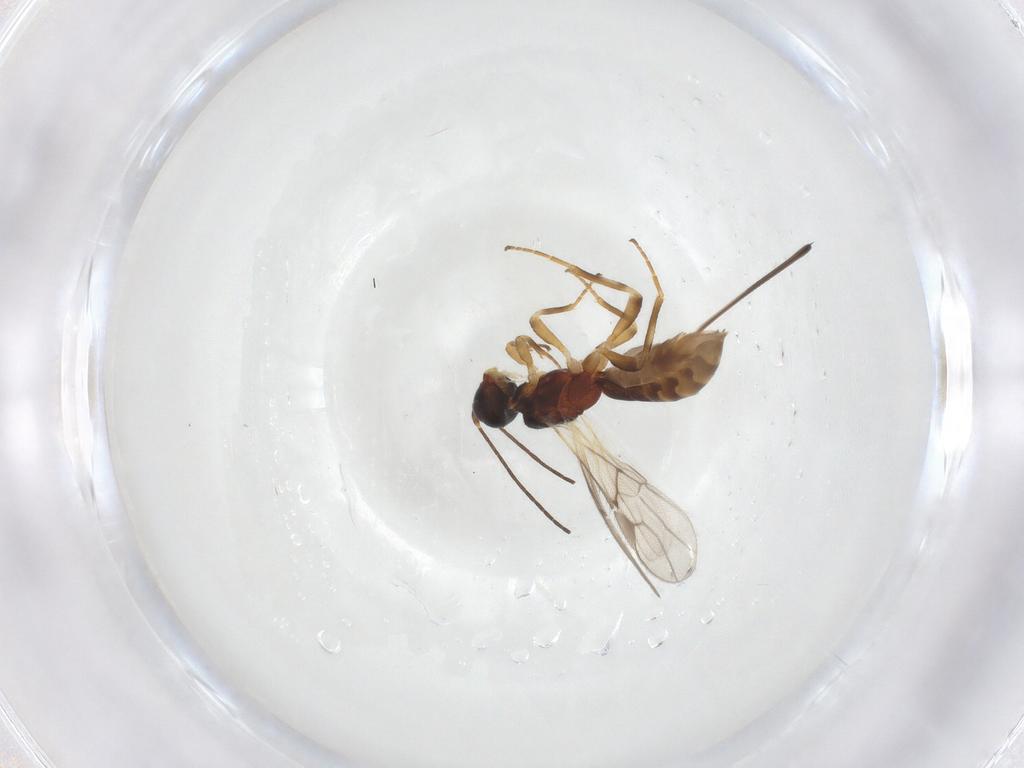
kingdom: Animalia
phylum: Arthropoda
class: Insecta
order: Hymenoptera
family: Braconidae
